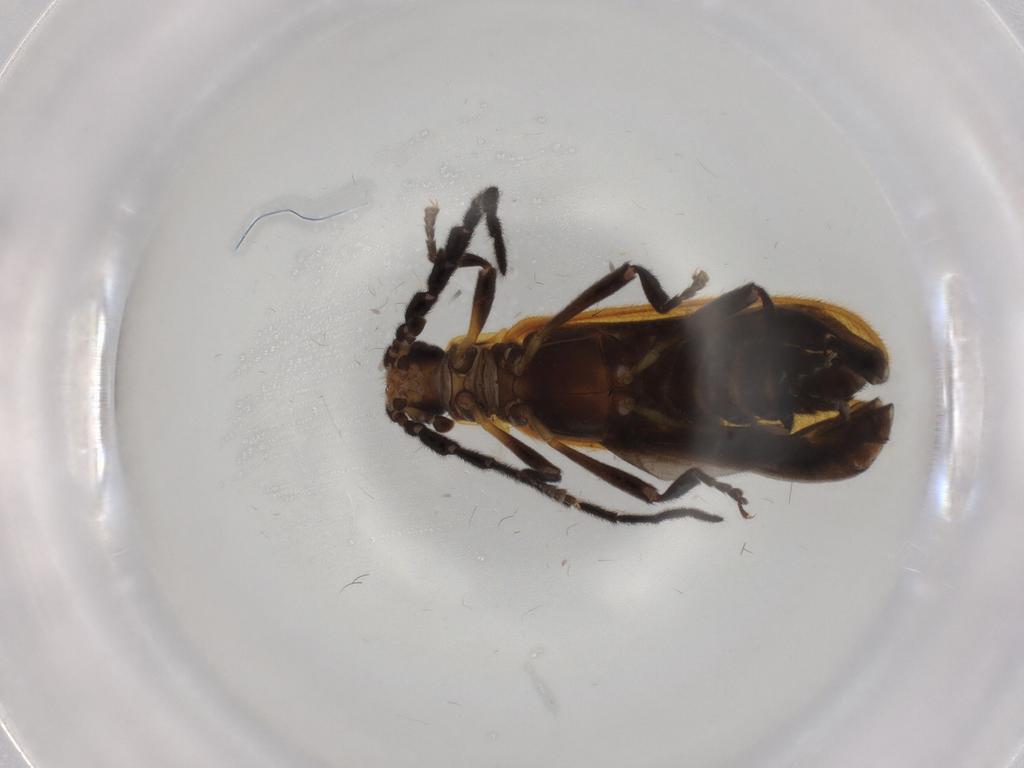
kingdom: Animalia
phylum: Arthropoda
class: Insecta
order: Coleoptera
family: Lycidae
